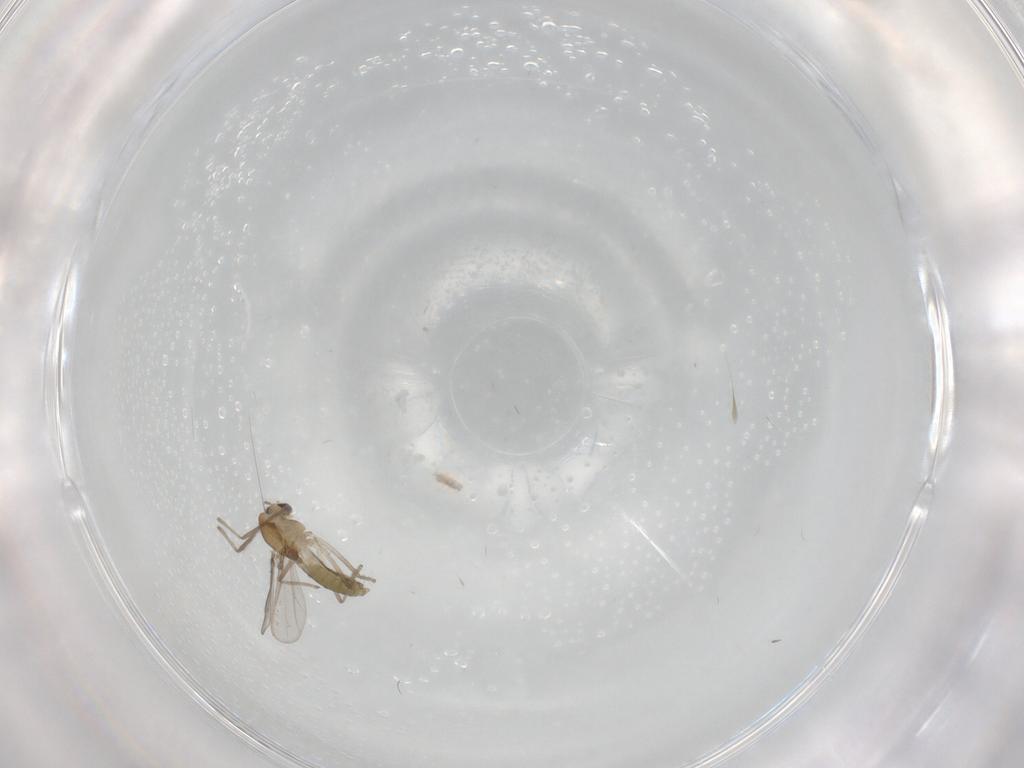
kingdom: Animalia
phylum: Arthropoda
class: Insecta
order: Diptera
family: Chironomidae
